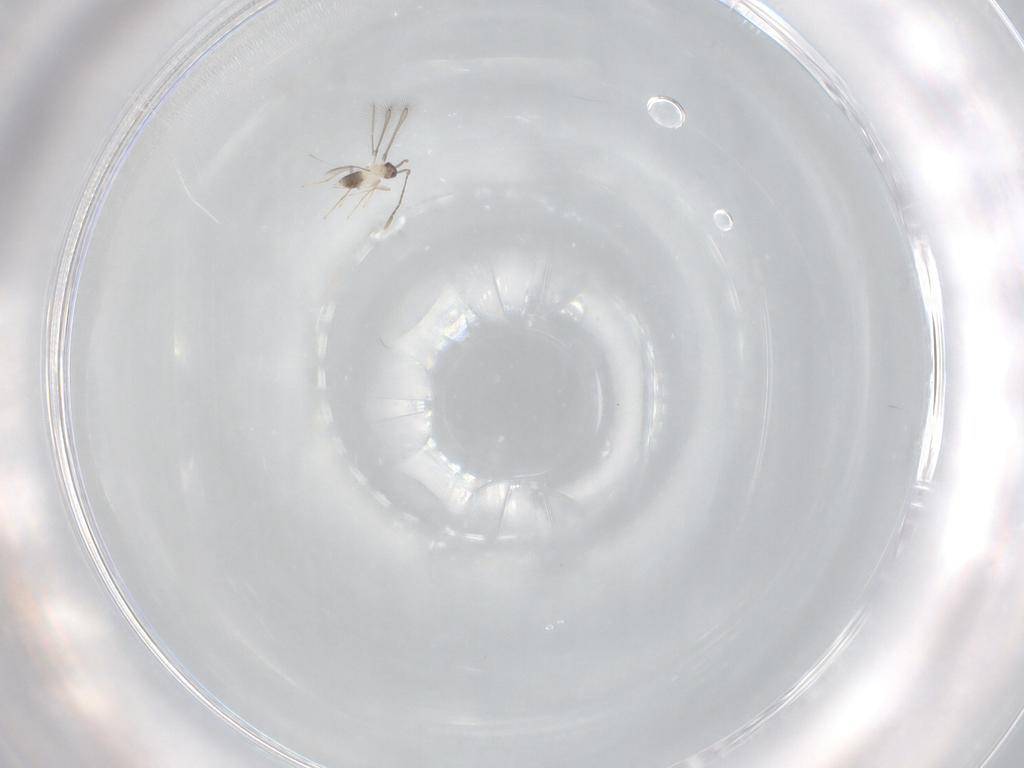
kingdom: Animalia
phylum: Arthropoda
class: Insecta
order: Hymenoptera
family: Mymaridae
